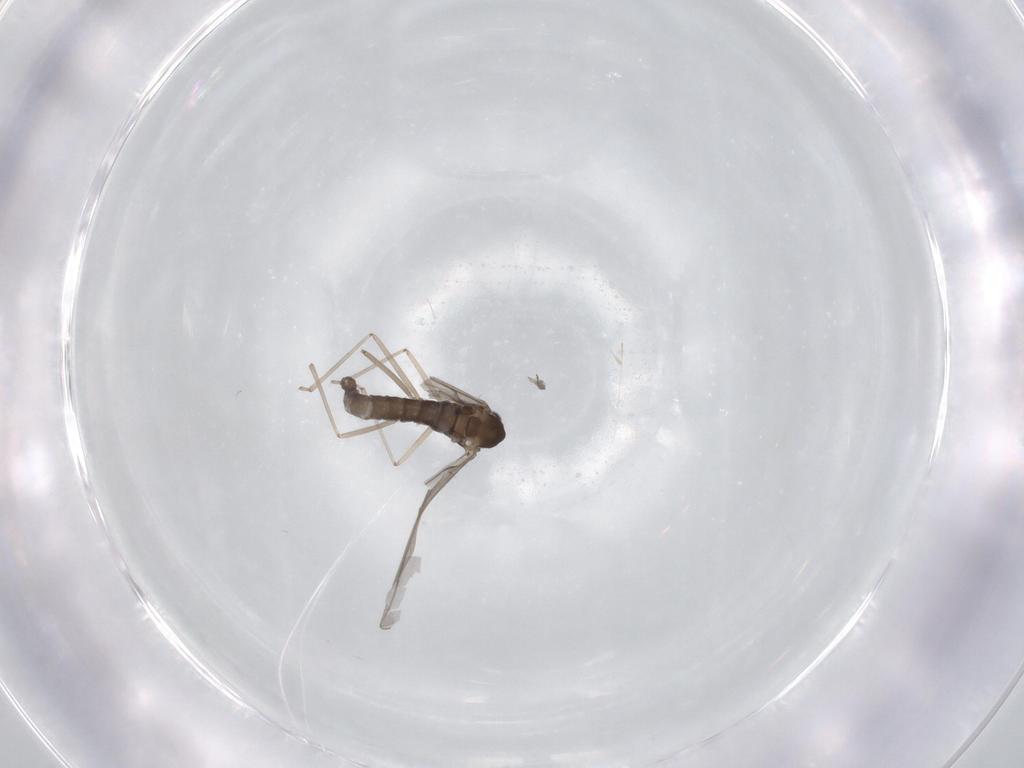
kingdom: Animalia
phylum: Arthropoda
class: Insecta
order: Diptera
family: Cecidomyiidae
